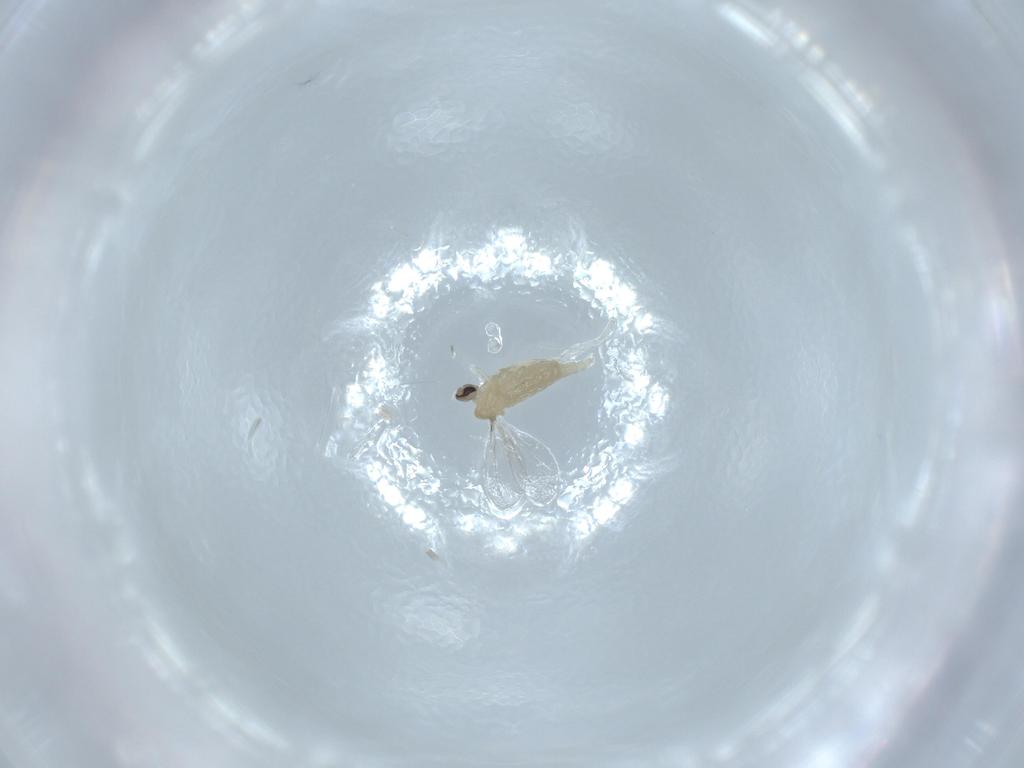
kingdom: Animalia
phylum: Arthropoda
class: Insecta
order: Diptera
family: Cecidomyiidae
